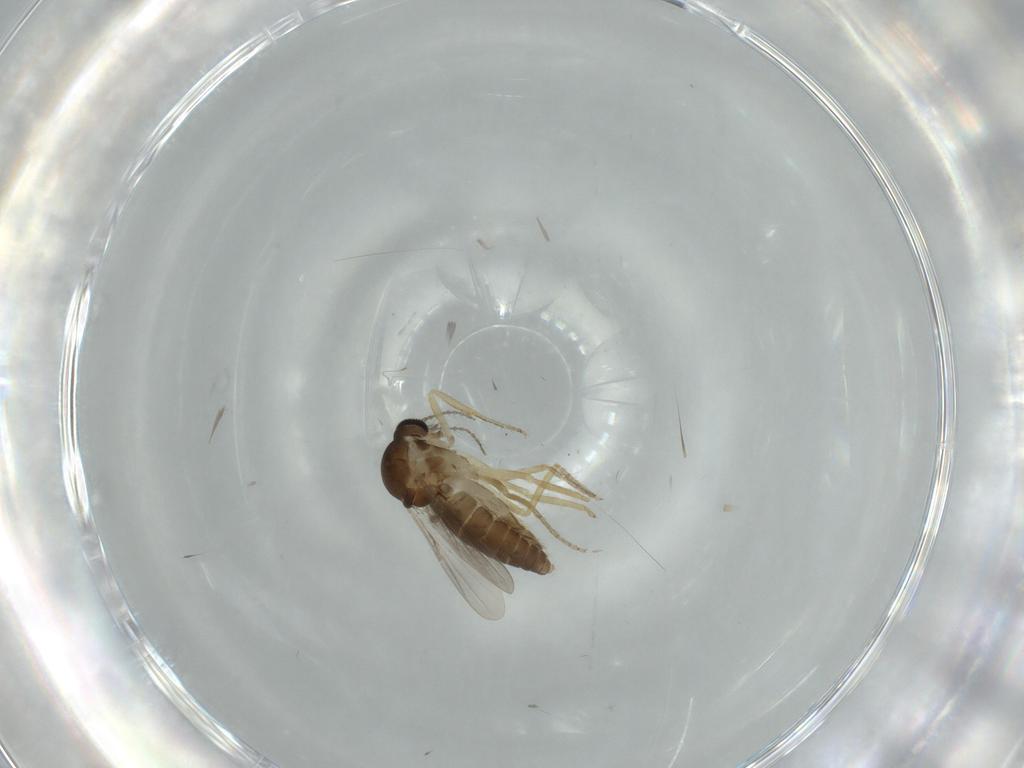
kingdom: Animalia
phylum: Arthropoda
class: Insecta
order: Diptera
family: Ceratopogonidae
